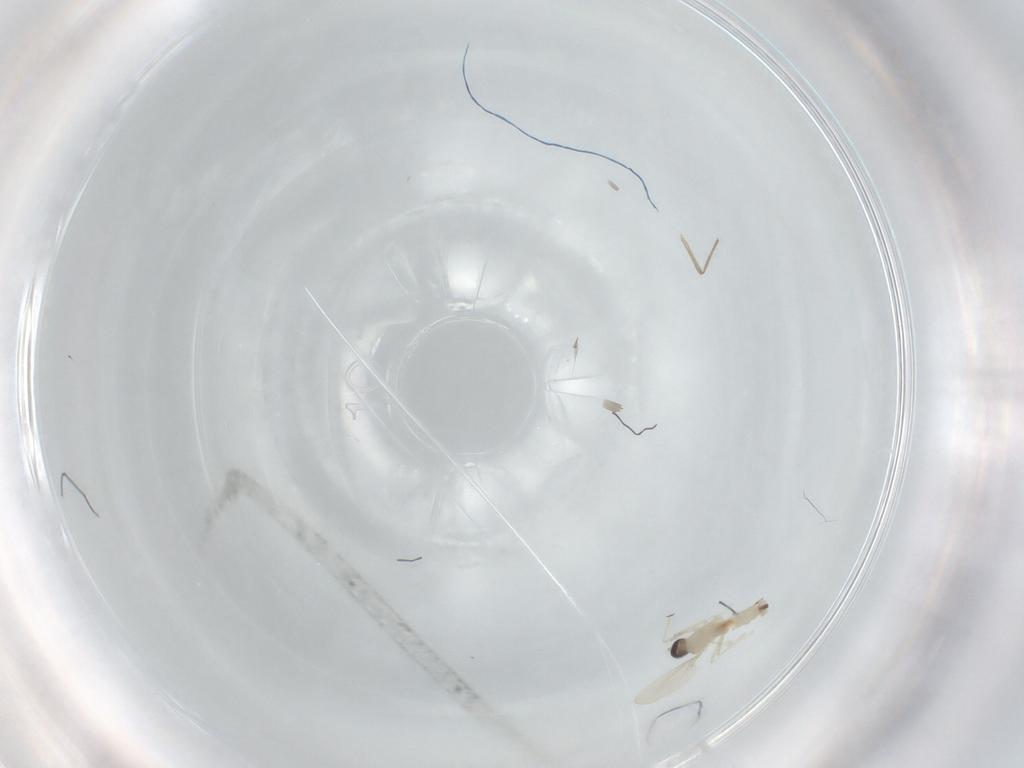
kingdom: Animalia
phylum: Arthropoda
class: Insecta
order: Diptera
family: Cecidomyiidae
